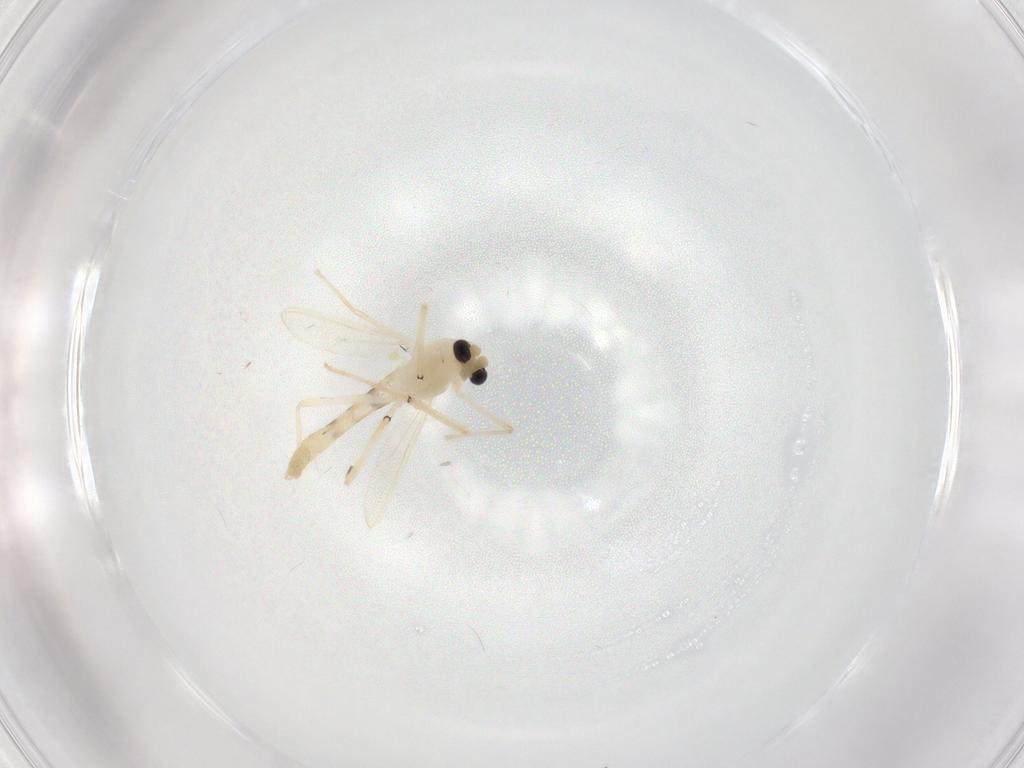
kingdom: Animalia
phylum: Arthropoda
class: Insecta
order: Diptera
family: Chironomidae
